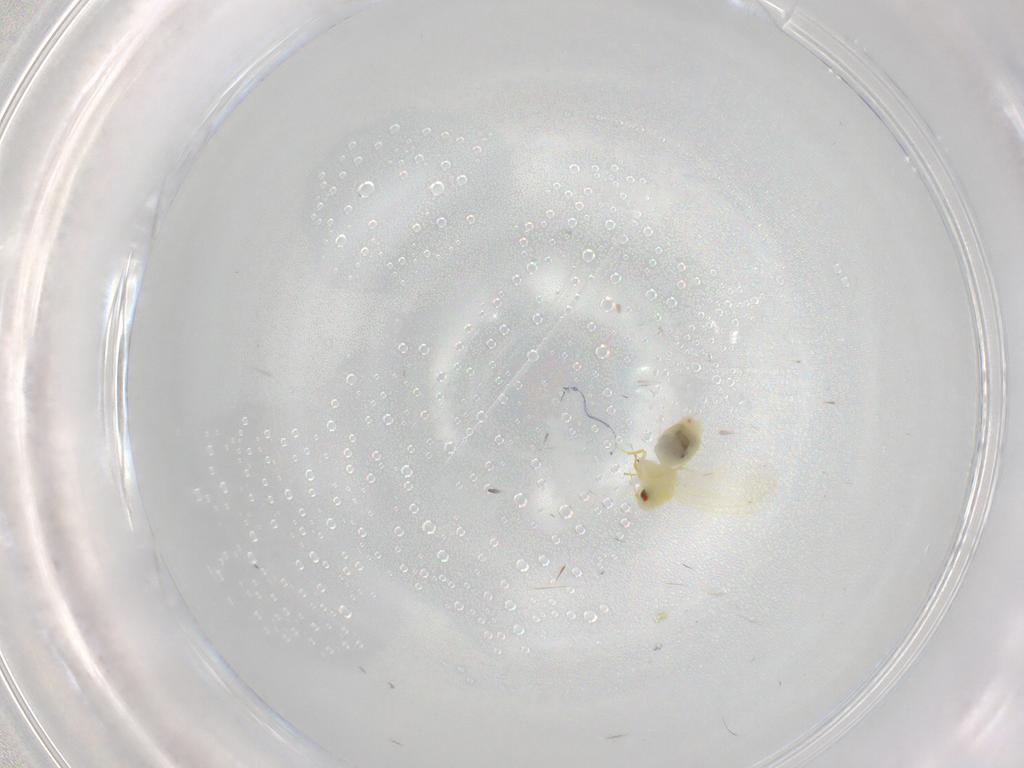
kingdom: Animalia
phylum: Arthropoda
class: Insecta
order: Hemiptera
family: Aleyrodidae
